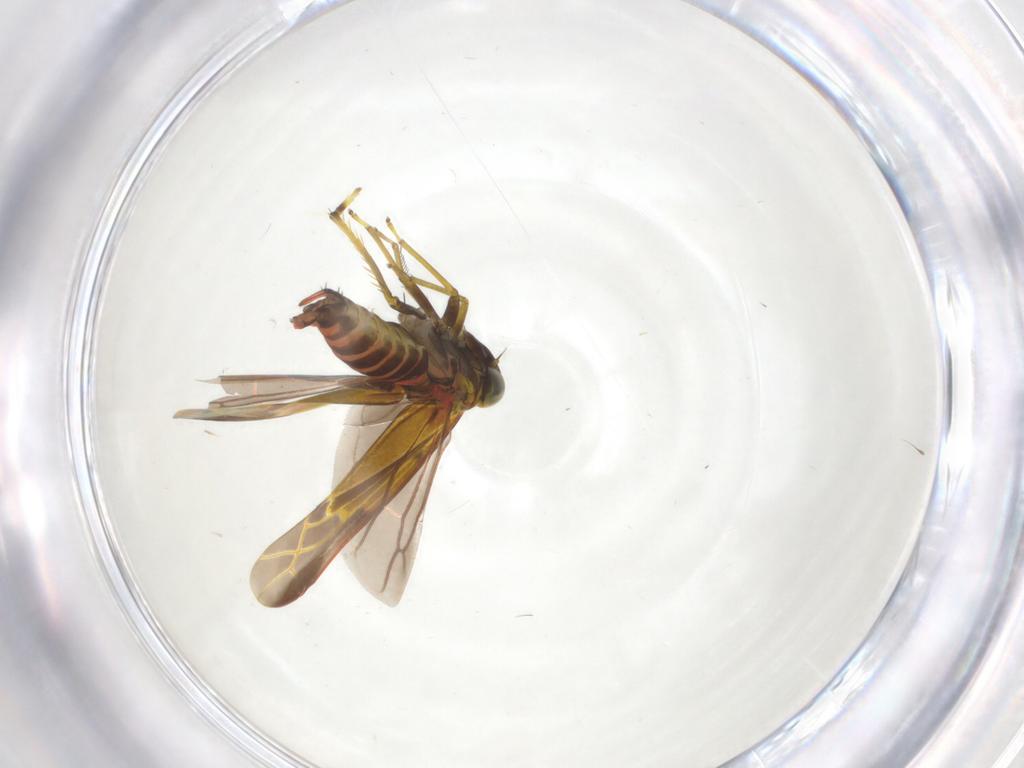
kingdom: Animalia
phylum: Arthropoda
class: Insecta
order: Hemiptera
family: Cicadellidae
